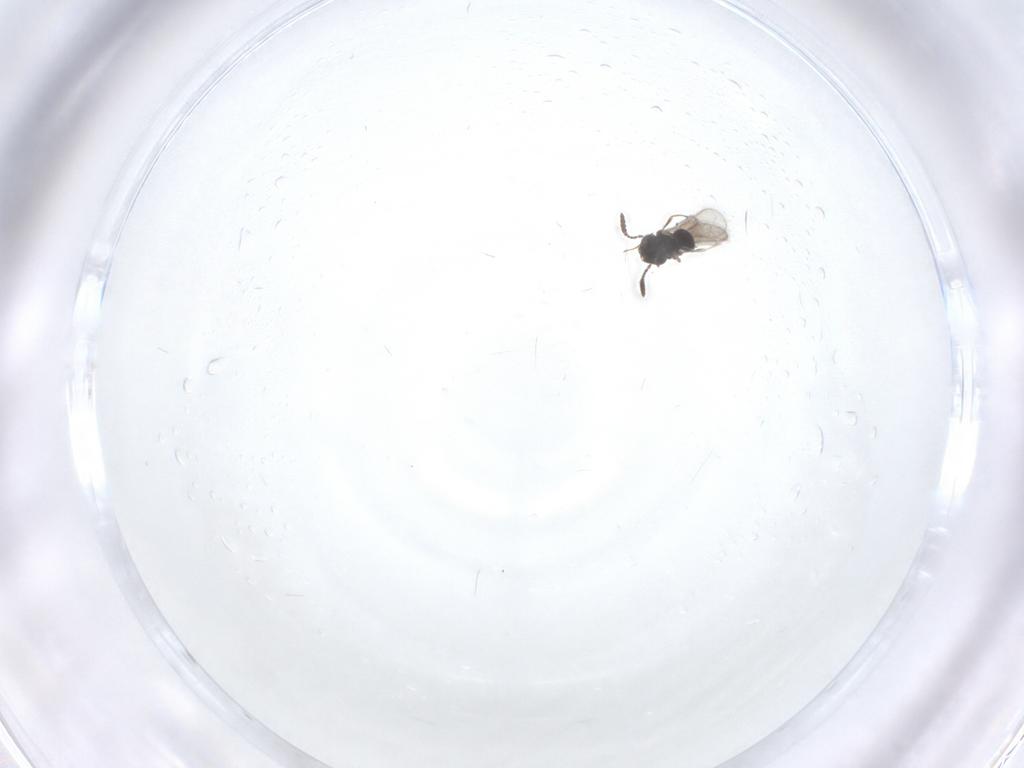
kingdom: Animalia
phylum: Arthropoda
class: Insecta
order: Hymenoptera
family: Scelionidae
